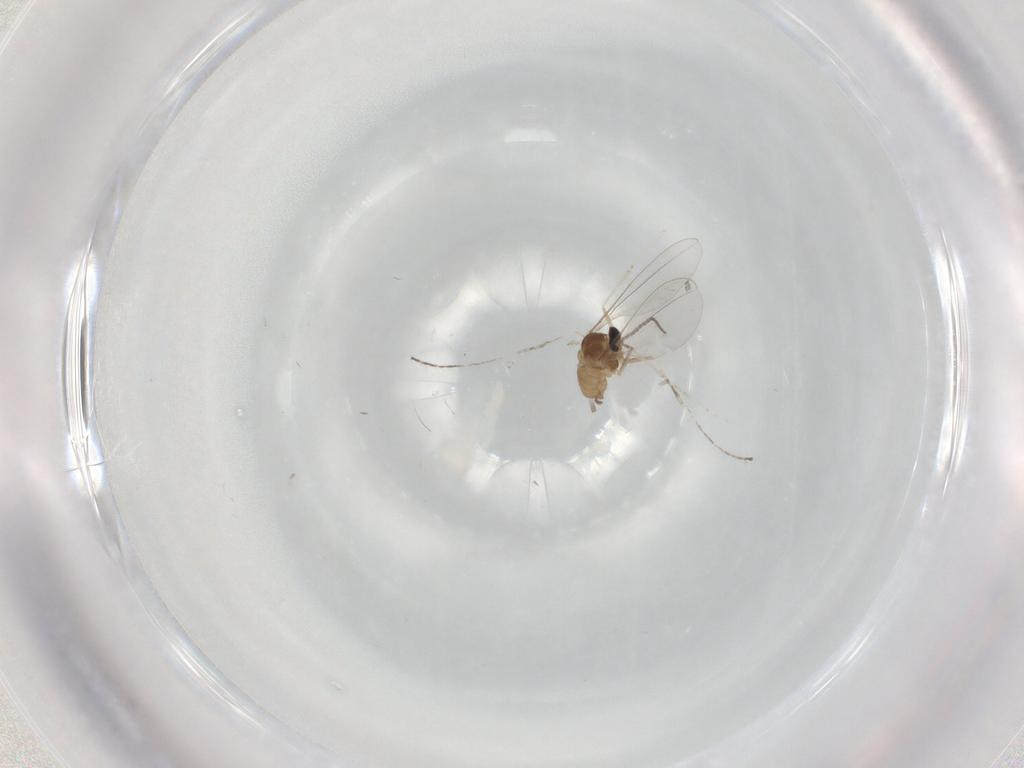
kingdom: Animalia
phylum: Arthropoda
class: Insecta
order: Diptera
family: Cecidomyiidae
